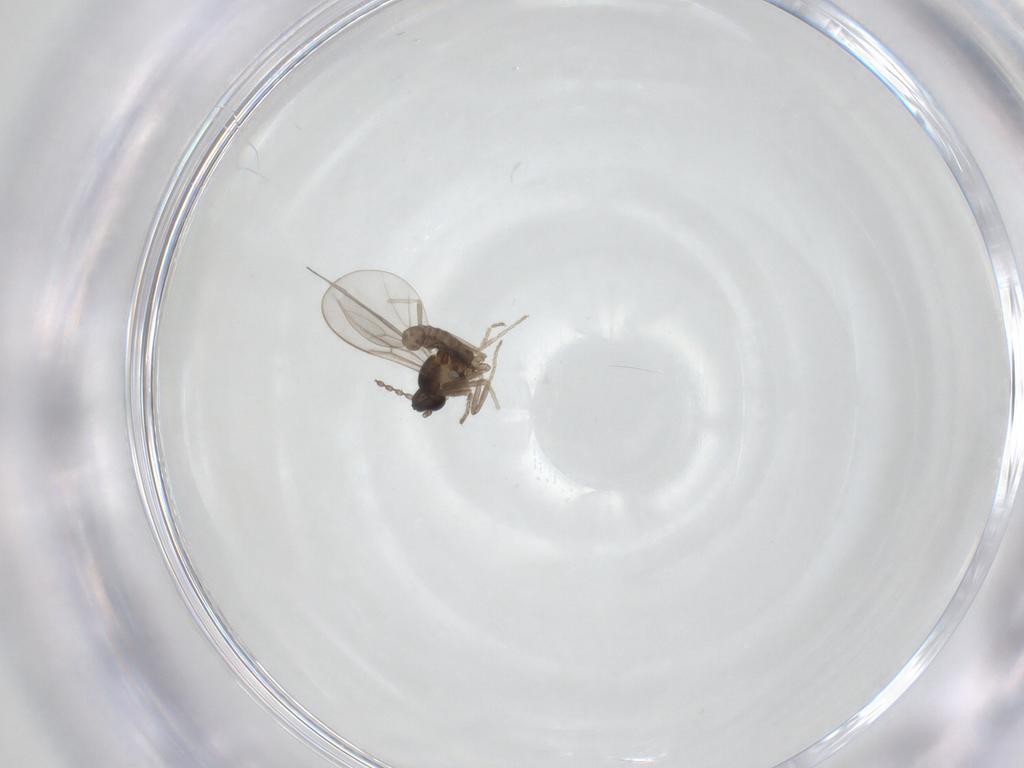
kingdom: Animalia
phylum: Arthropoda
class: Insecta
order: Diptera
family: Cecidomyiidae
